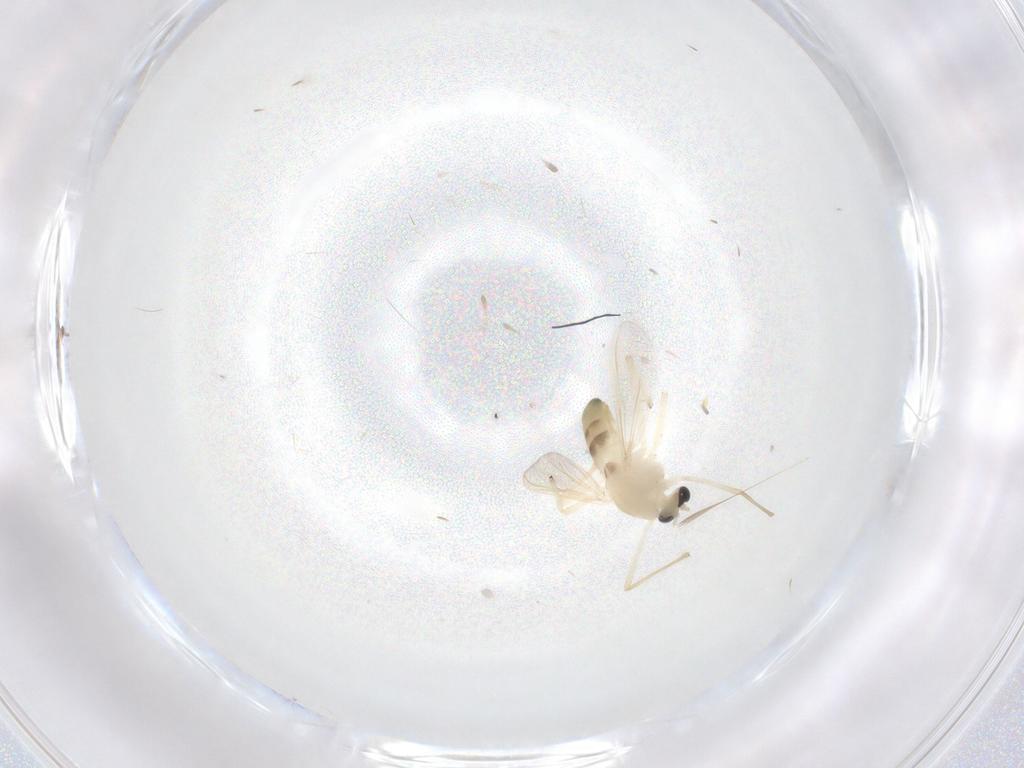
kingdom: Animalia
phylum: Arthropoda
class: Insecta
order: Diptera
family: Chironomidae
